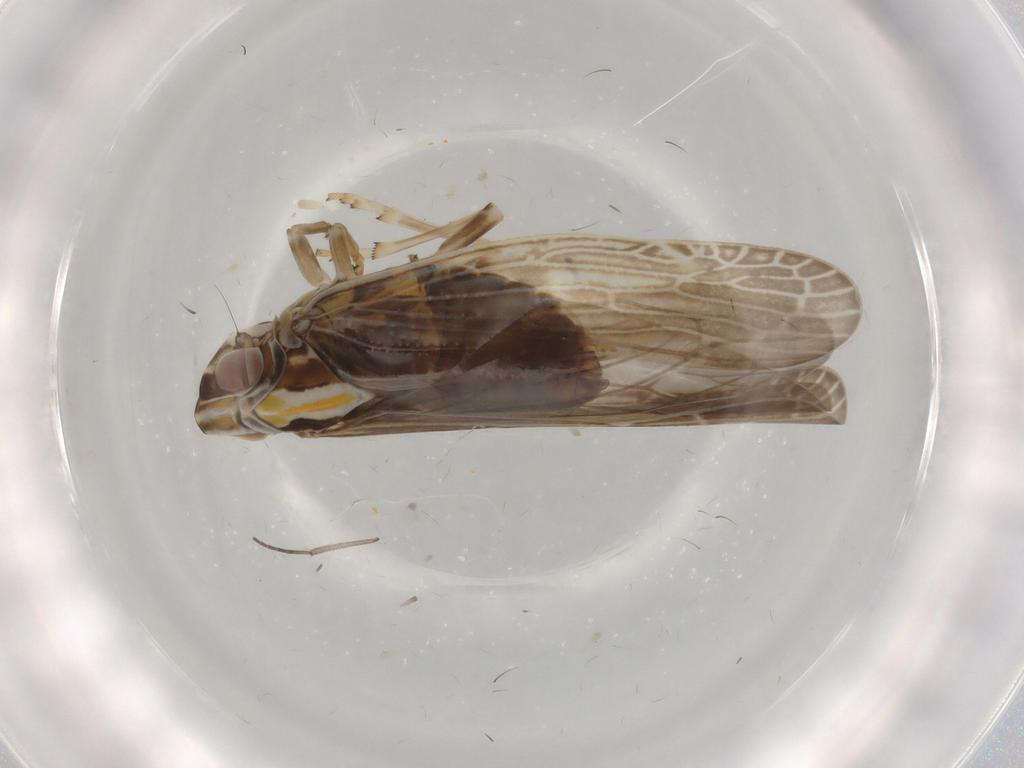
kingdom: Animalia
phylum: Arthropoda
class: Insecta
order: Hemiptera
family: Achilidae
